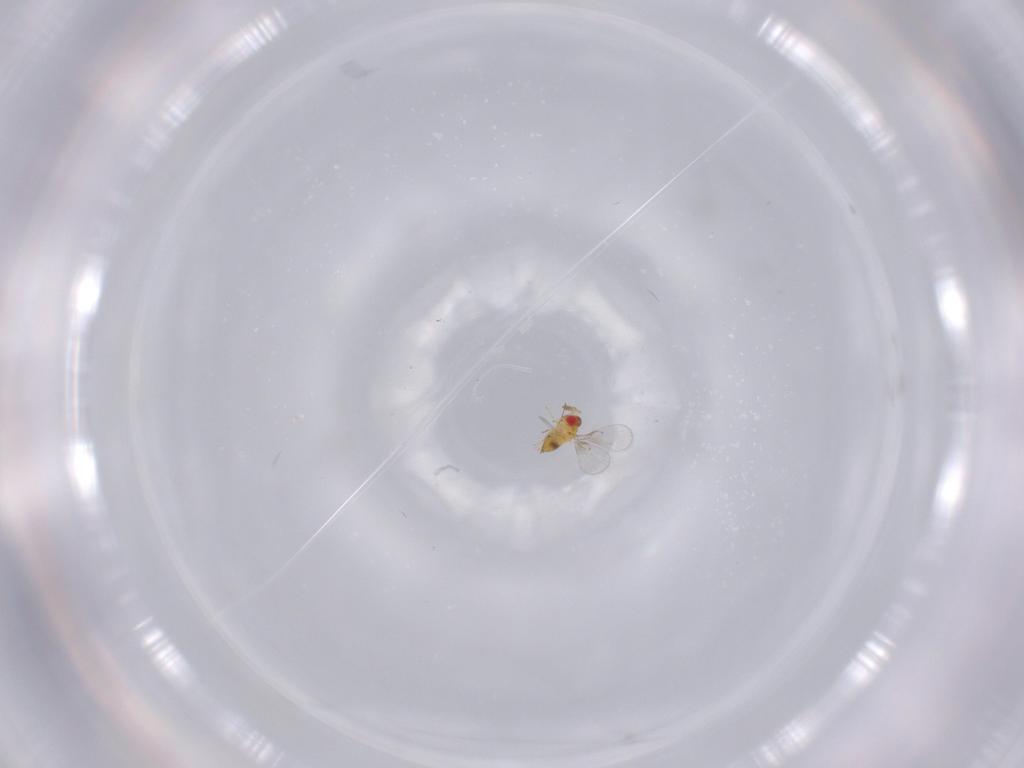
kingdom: Animalia
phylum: Arthropoda
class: Insecta
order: Hymenoptera
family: Trichogrammatidae
